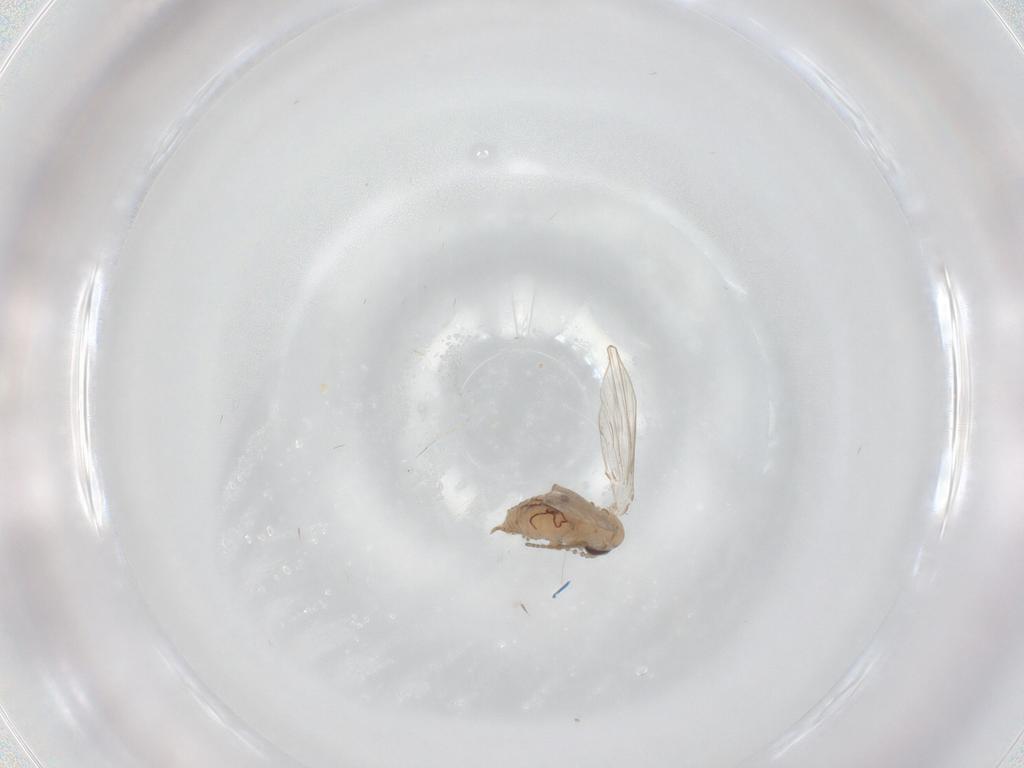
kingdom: Animalia
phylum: Arthropoda
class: Insecta
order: Diptera
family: Psychodidae
